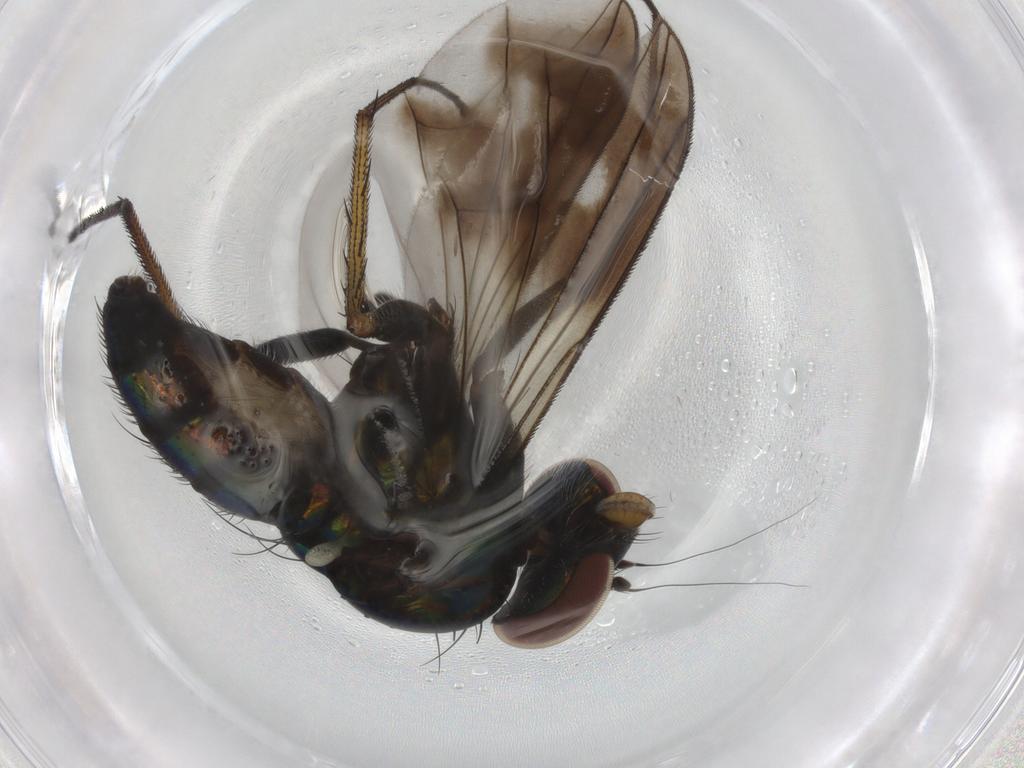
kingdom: Animalia
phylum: Arthropoda
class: Insecta
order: Diptera
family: Dolichopodidae
